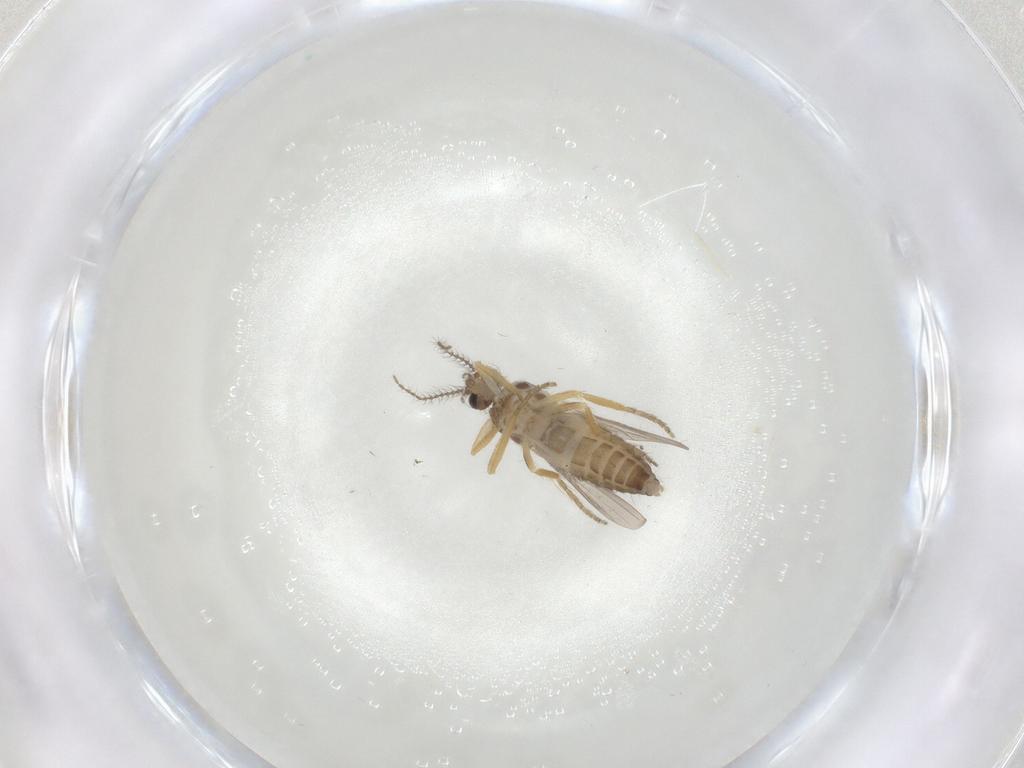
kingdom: Animalia
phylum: Arthropoda
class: Insecta
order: Diptera
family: Ceratopogonidae
